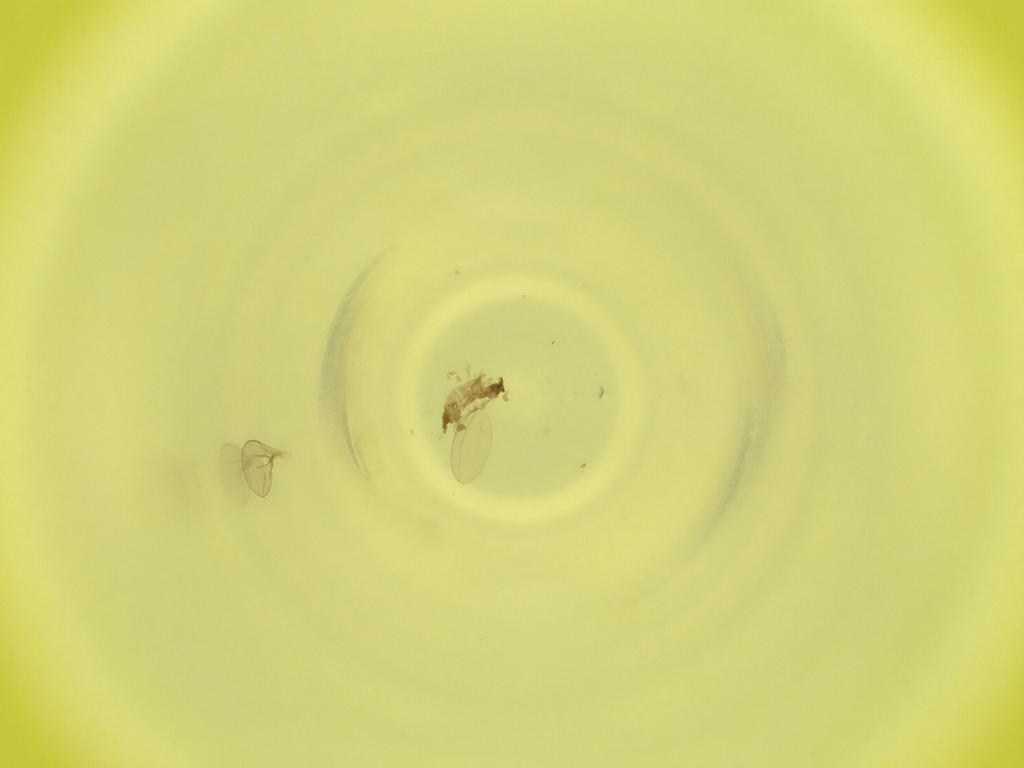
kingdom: Animalia
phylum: Arthropoda
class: Insecta
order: Diptera
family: Cecidomyiidae
